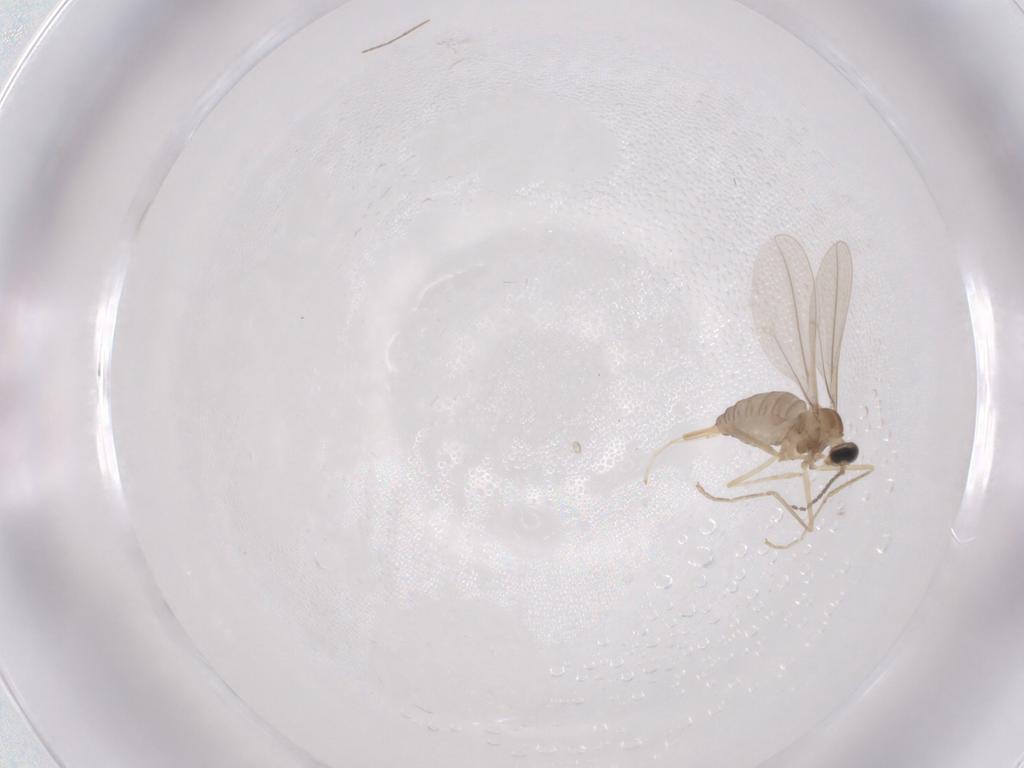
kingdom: Animalia
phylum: Arthropoda
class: Insecta
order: Diptera
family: Cecidomyiidae
